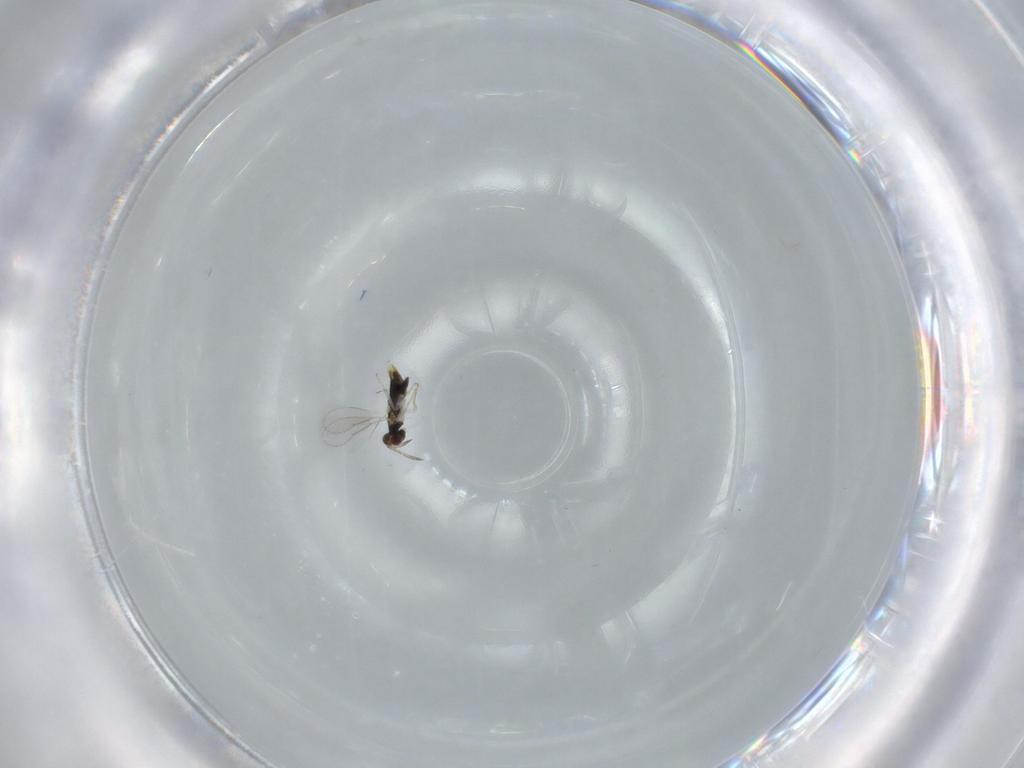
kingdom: Animalia
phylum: Arthropoda
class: Insecta
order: Hymenoptera
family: Aphelinidae
